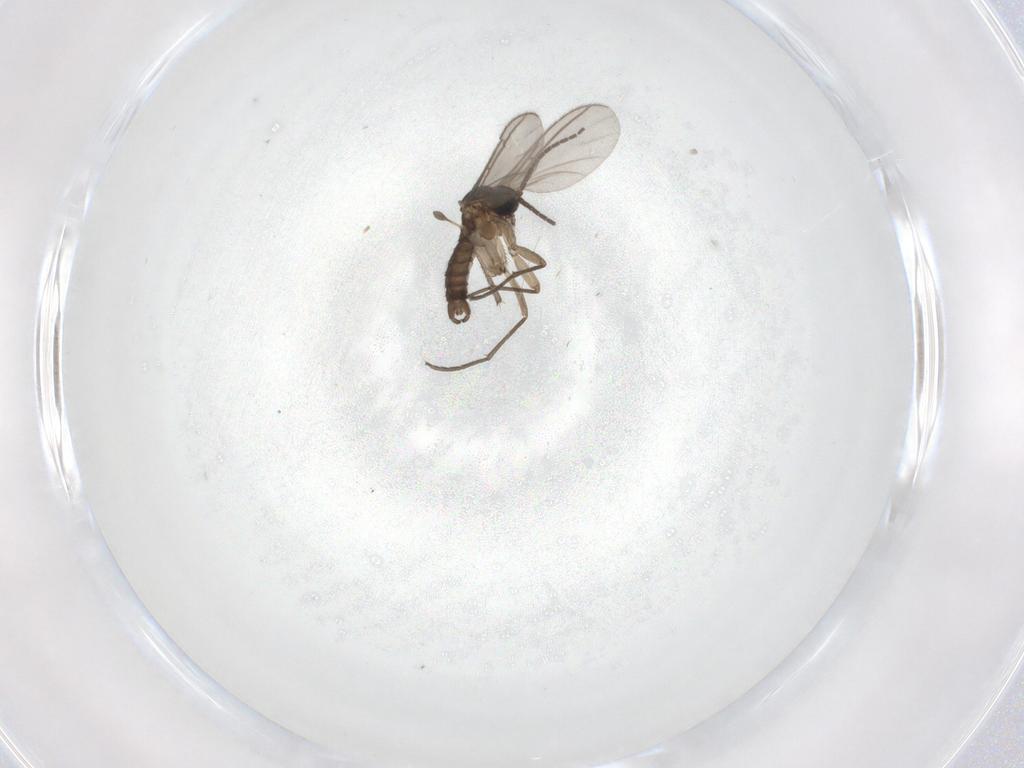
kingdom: Animalia
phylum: Arthropoda
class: Insecta
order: Diptera
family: Sciaridae
